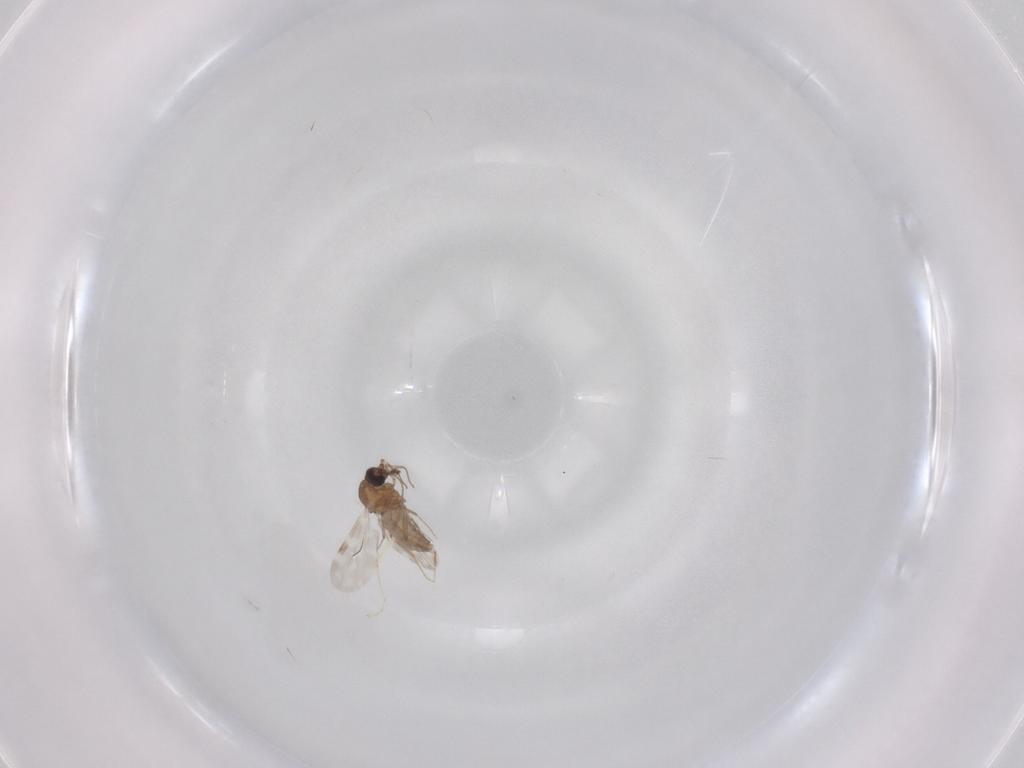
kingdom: Animalia
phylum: Arthropoda
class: Insecta
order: Diptera
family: Cecidomyiidae
